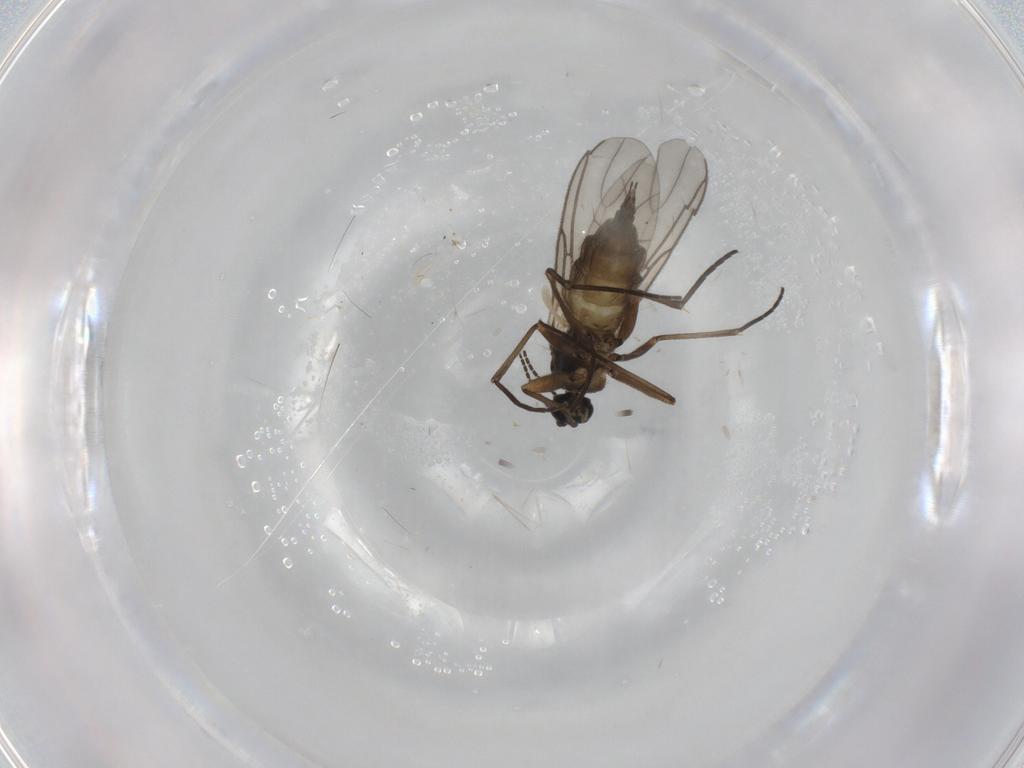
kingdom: Animalia
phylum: Arthropoda
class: Insecta
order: Diptera
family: Sciaridae
